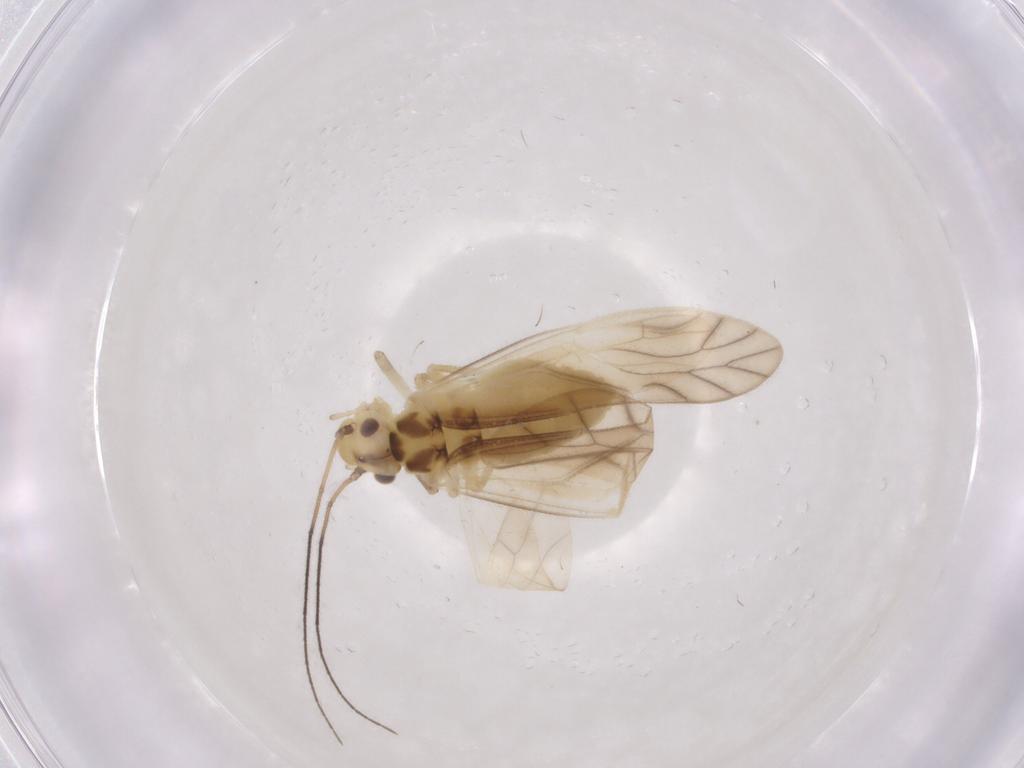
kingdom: Animalia
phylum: Arthropoda
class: Insecta
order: Psocodea
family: Caeciliusidae
